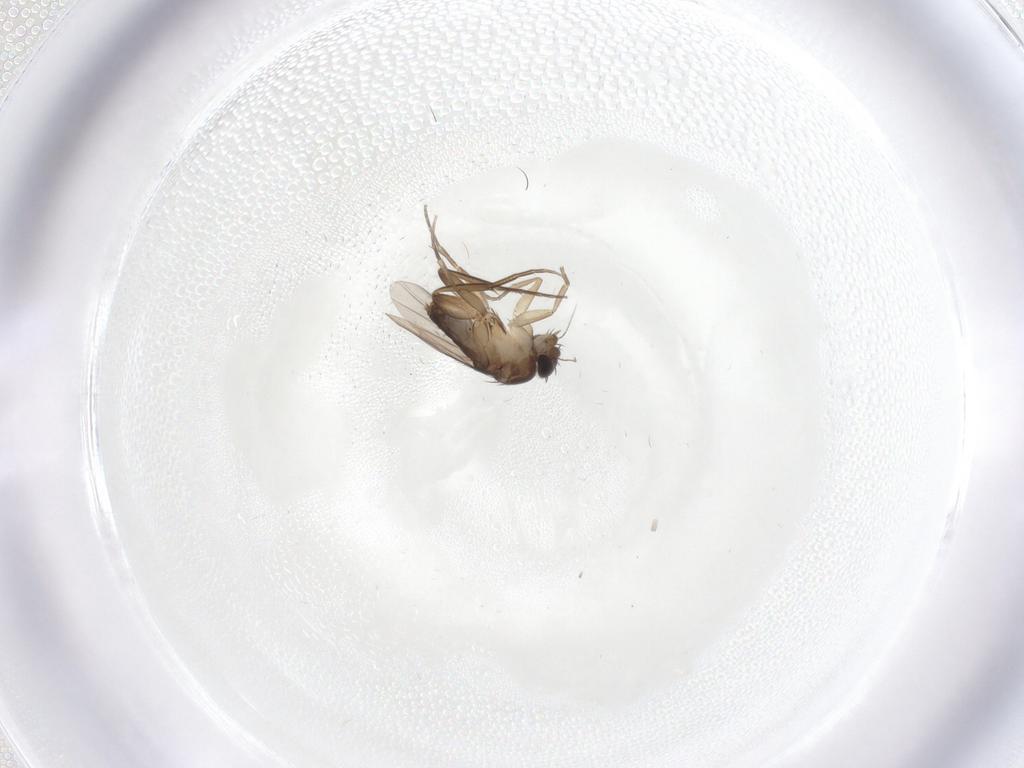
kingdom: Animalia
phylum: Arthropoda
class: Insecta
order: Diptera
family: Phoridae
